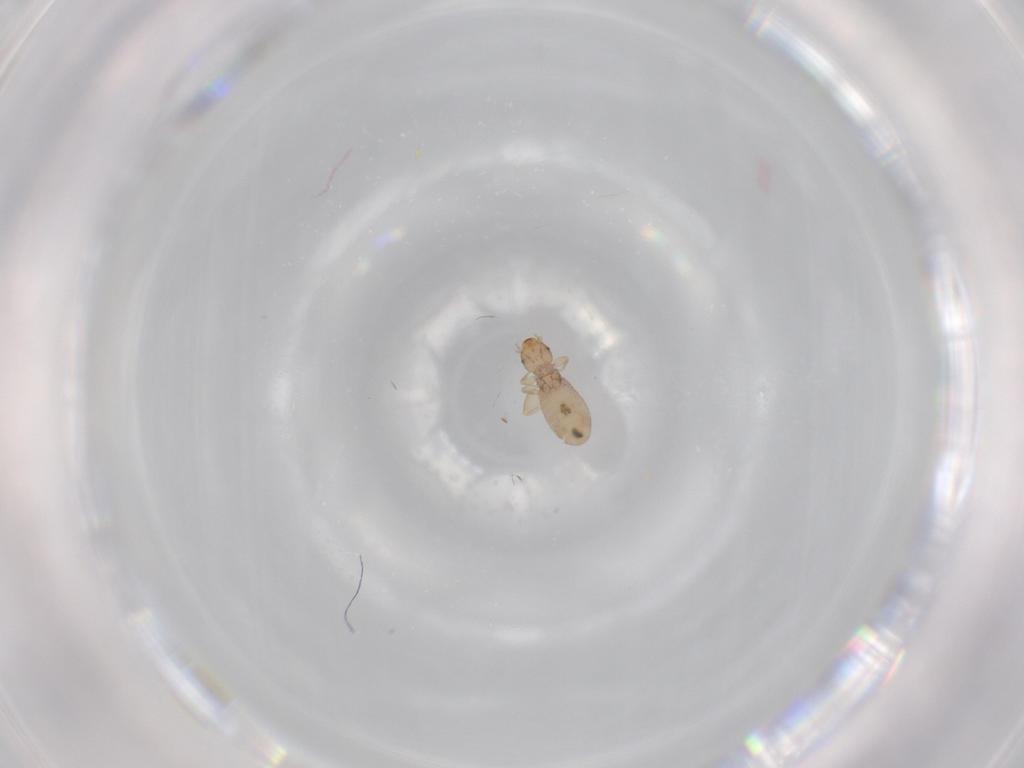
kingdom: Animalia
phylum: Arthropoda
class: Insecta
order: Psocodea
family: Liposcelididae
